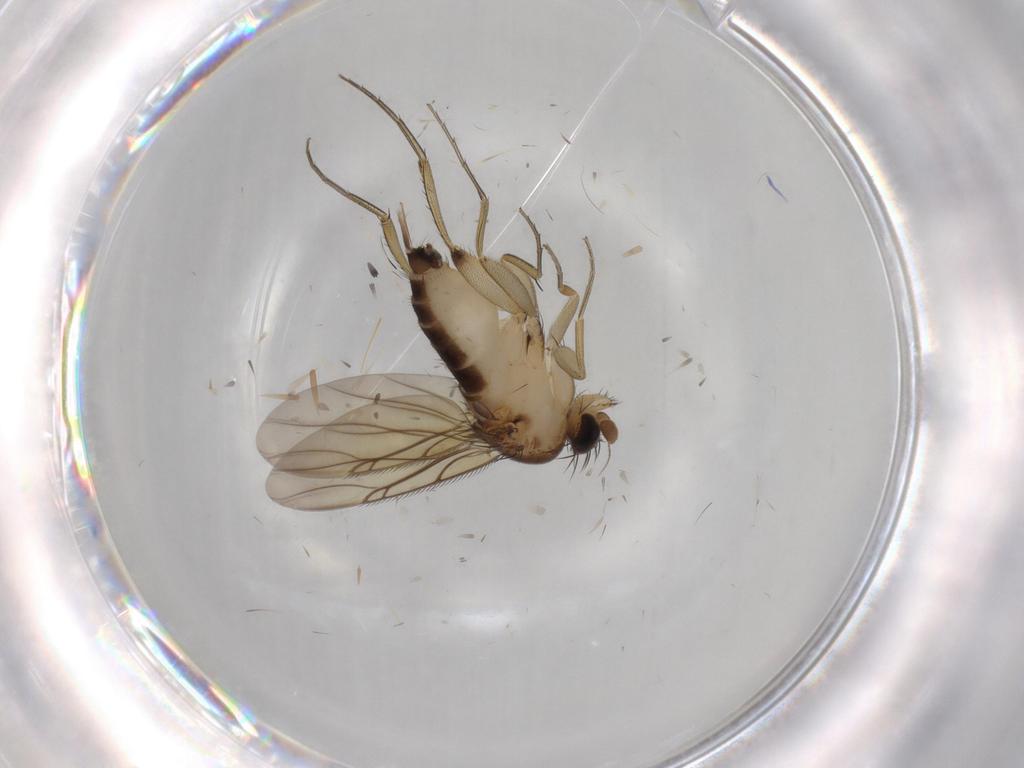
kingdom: Animalia
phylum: Arthropoda
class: Insecta
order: Diptera
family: Phoridae
